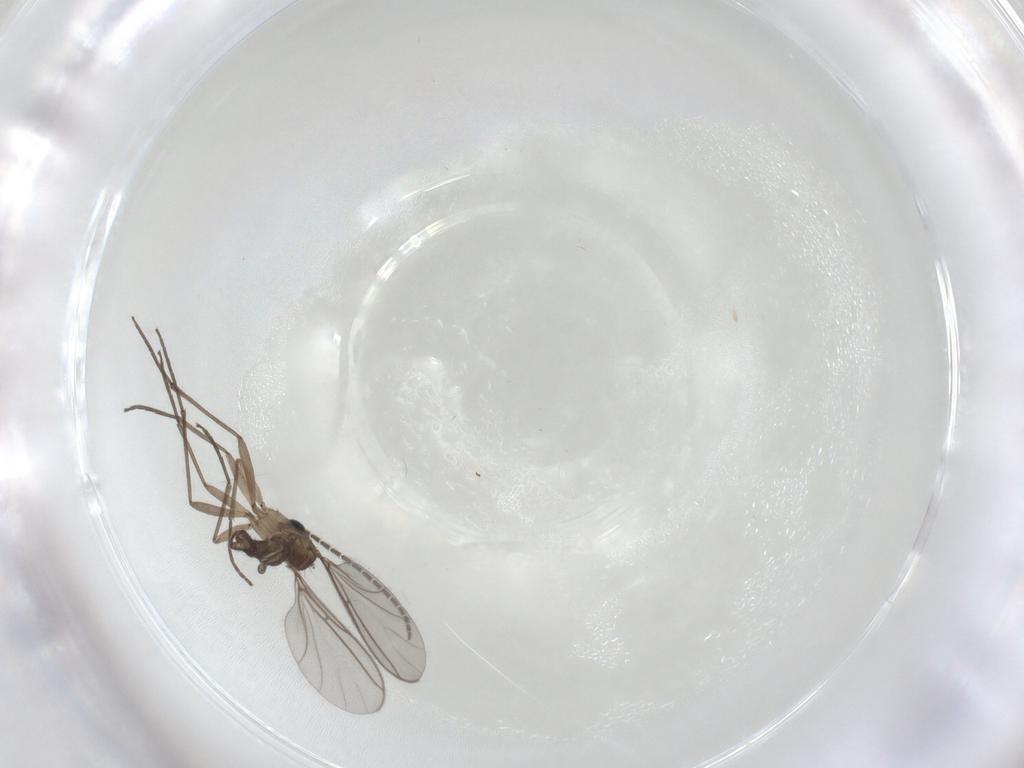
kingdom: Animalia
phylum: Arthropoda
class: Insecta
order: Diptera
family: Sciaridae
